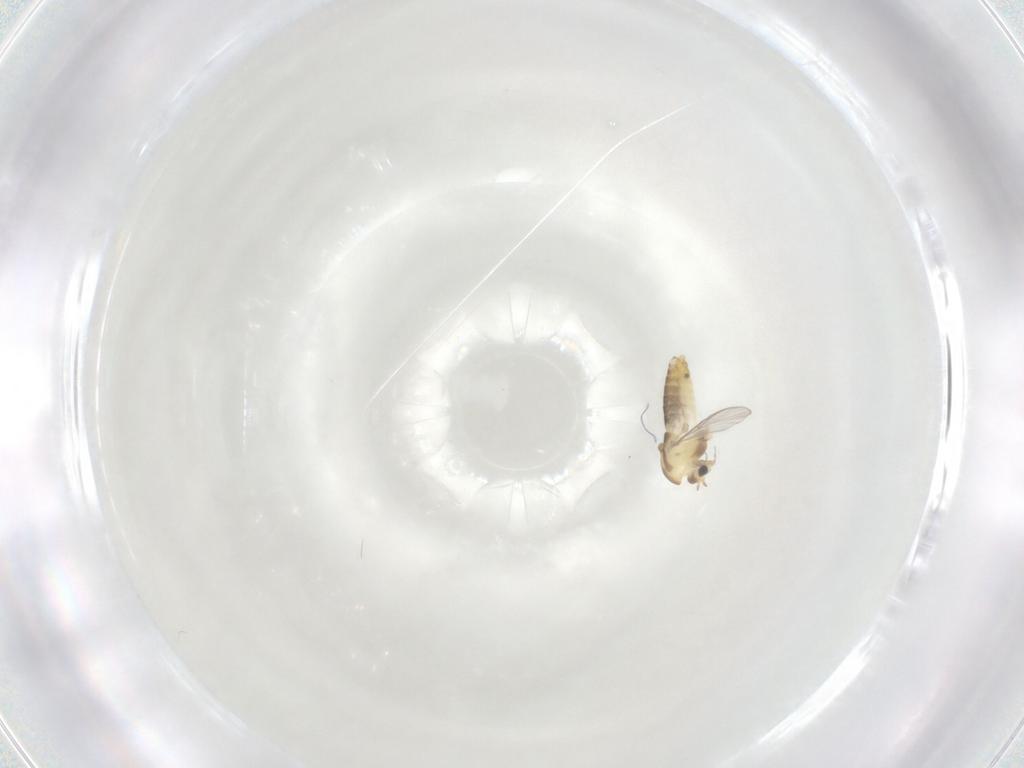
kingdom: Animalia
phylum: Arthropoda
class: Insecta
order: Diptera
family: Chironomidae
